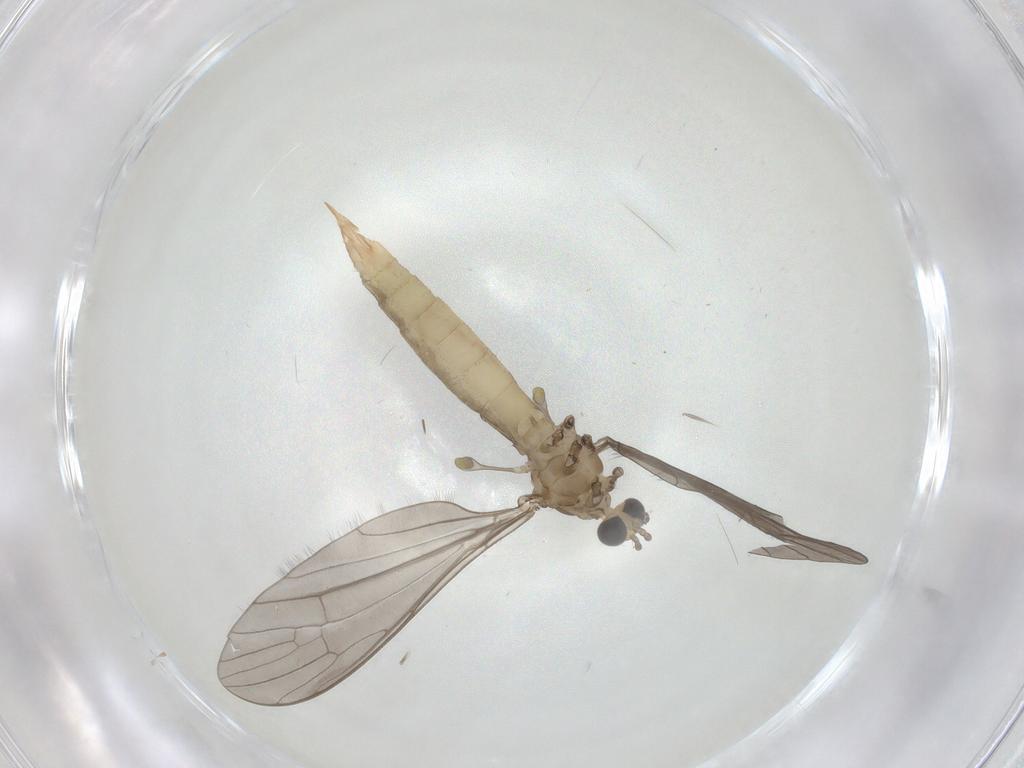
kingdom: Animalia
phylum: Arthropoda
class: Insecta
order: Diptera
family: Limoniidae
